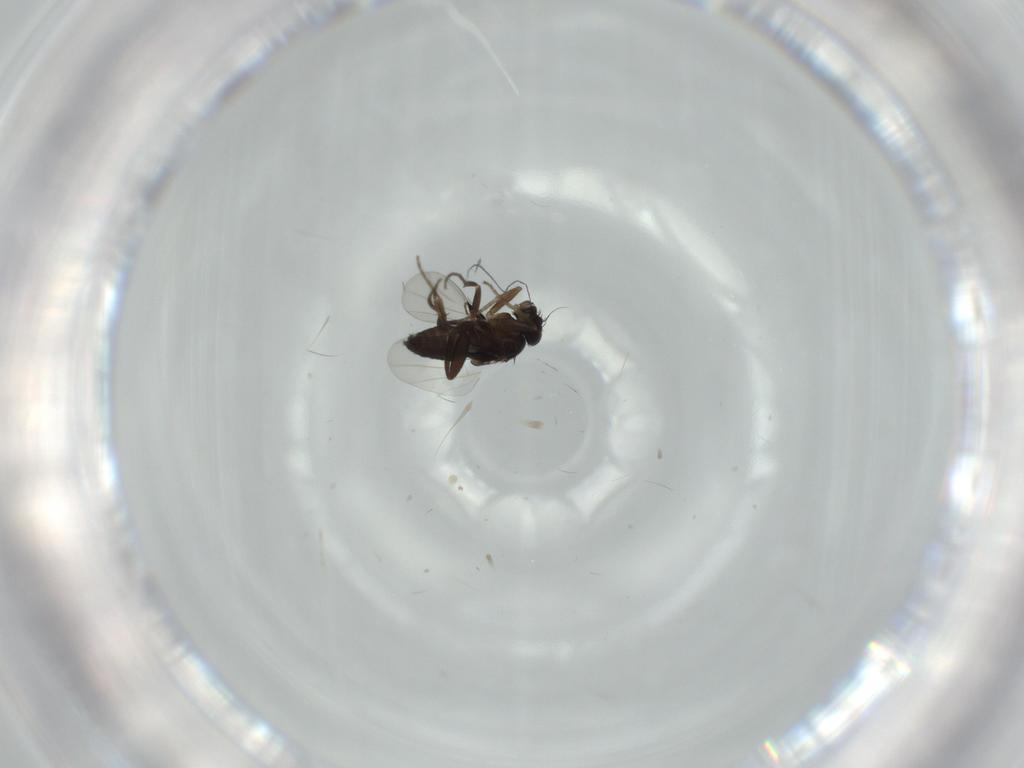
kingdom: Animalia
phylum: Arthropoda
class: Insecta
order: Diptera
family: Phoridae
